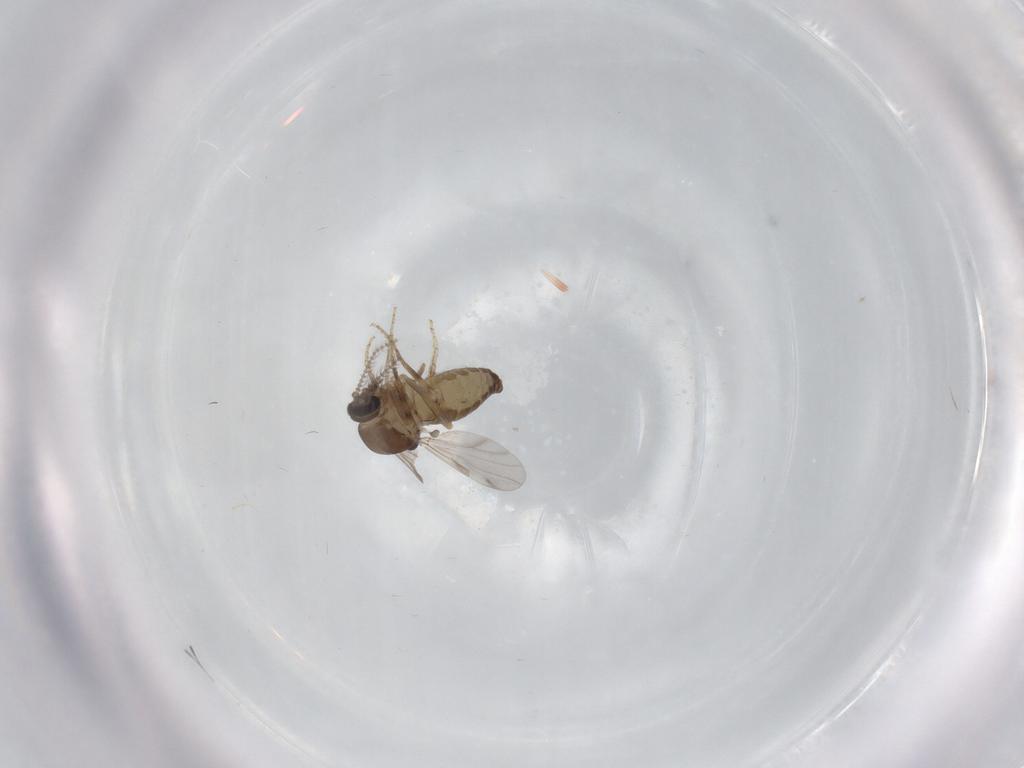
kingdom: Animalia
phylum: Arthropoda
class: Insecta
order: Diptera
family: Ceratopogonidae
